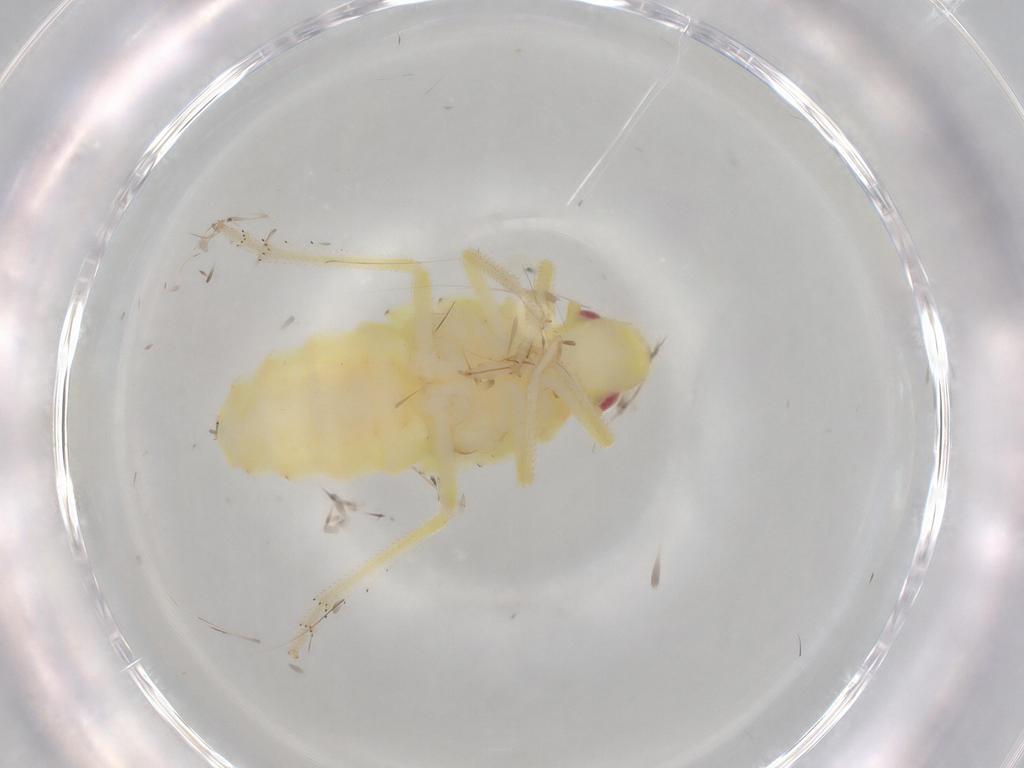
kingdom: Animalia
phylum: Arthropoda
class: Insecta
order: Hemiptera
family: Tropiduchidae
